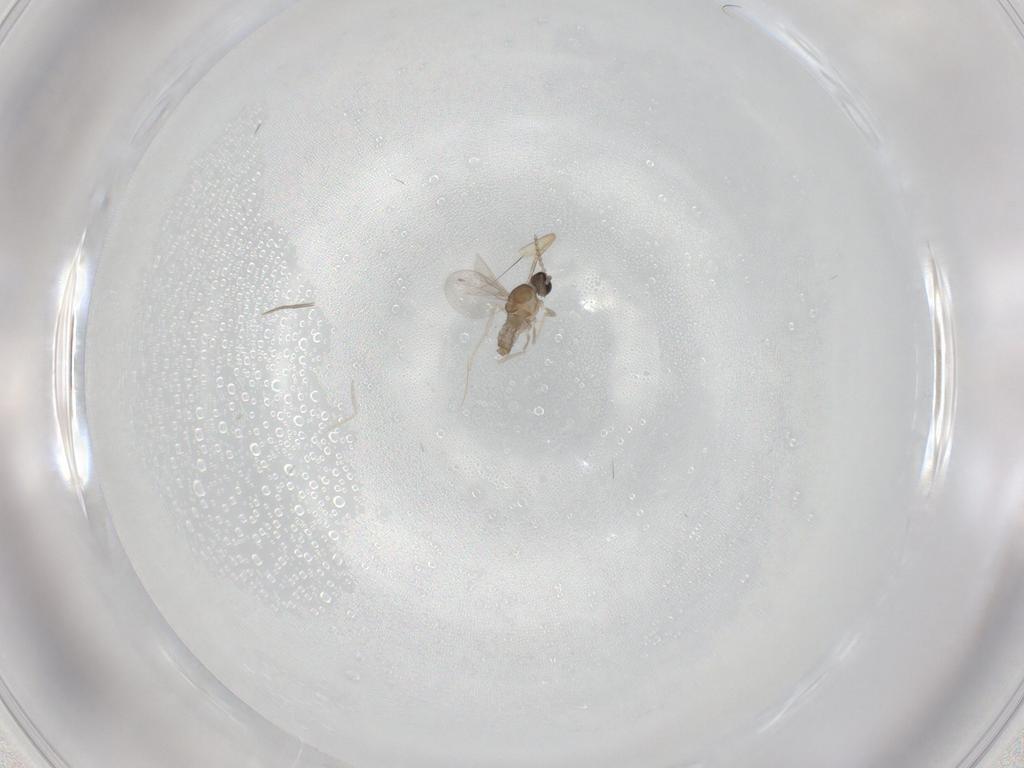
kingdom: Animalia
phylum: Arthropoda
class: Insecta
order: Diptera
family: Phoridae
